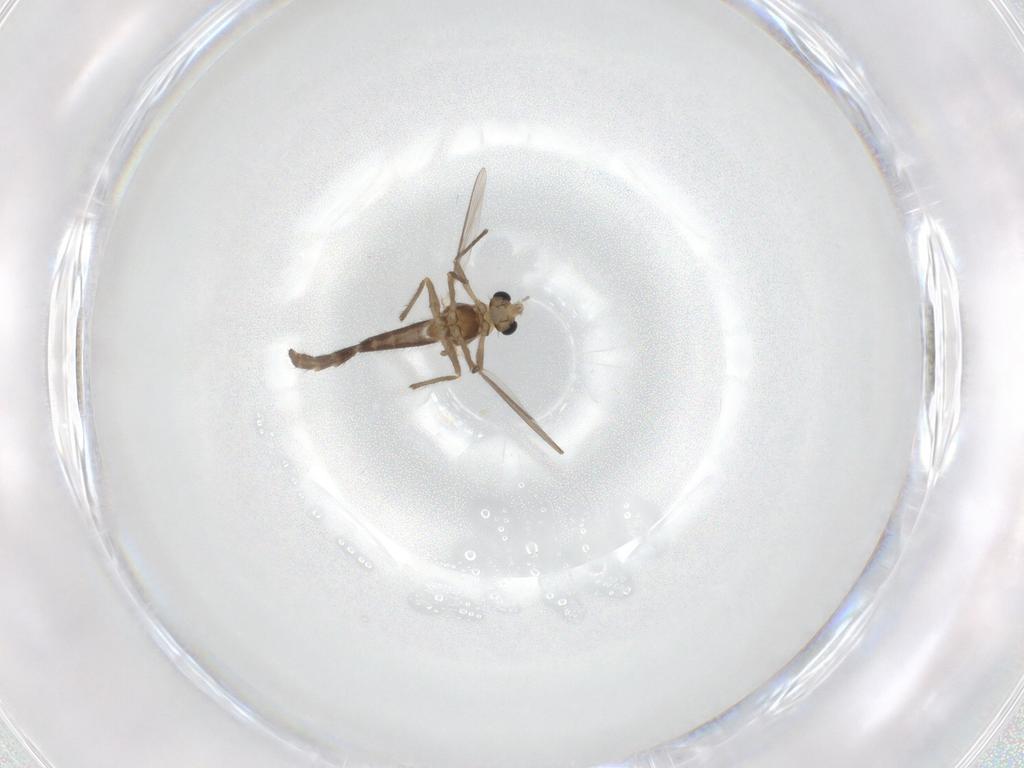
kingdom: Animalia
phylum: Arthropoda
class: Insecta
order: Diptera
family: Chironomidae
